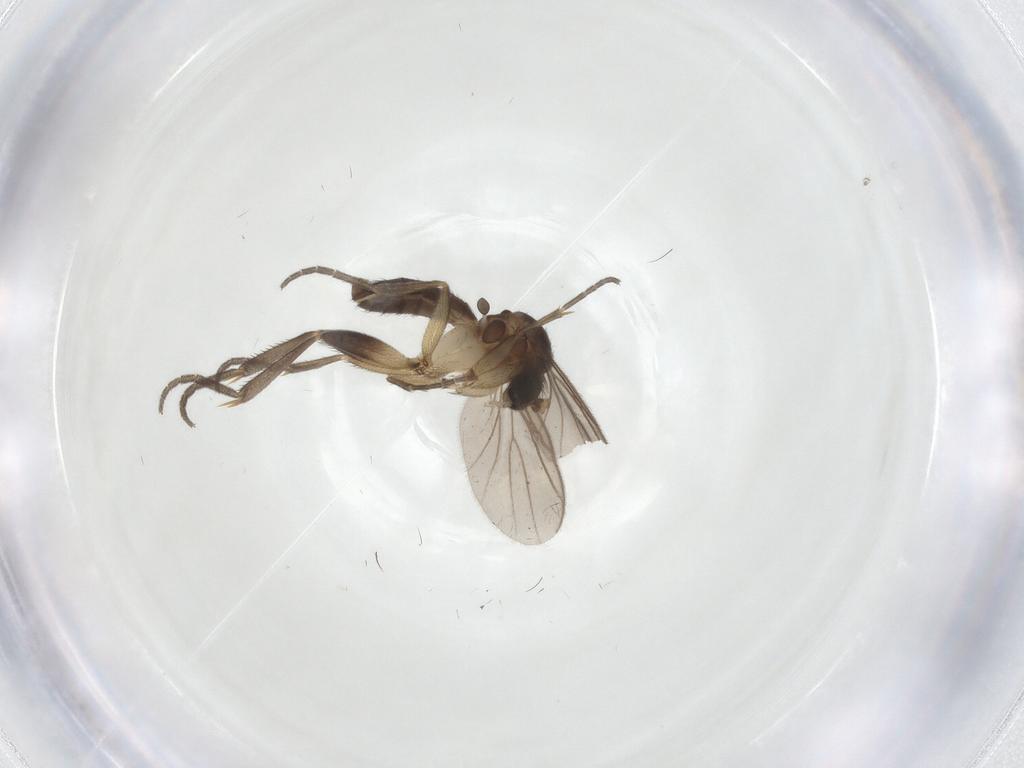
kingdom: Animalia
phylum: Arthropoda
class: Insecta
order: Diptera
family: Mycetophilidae
